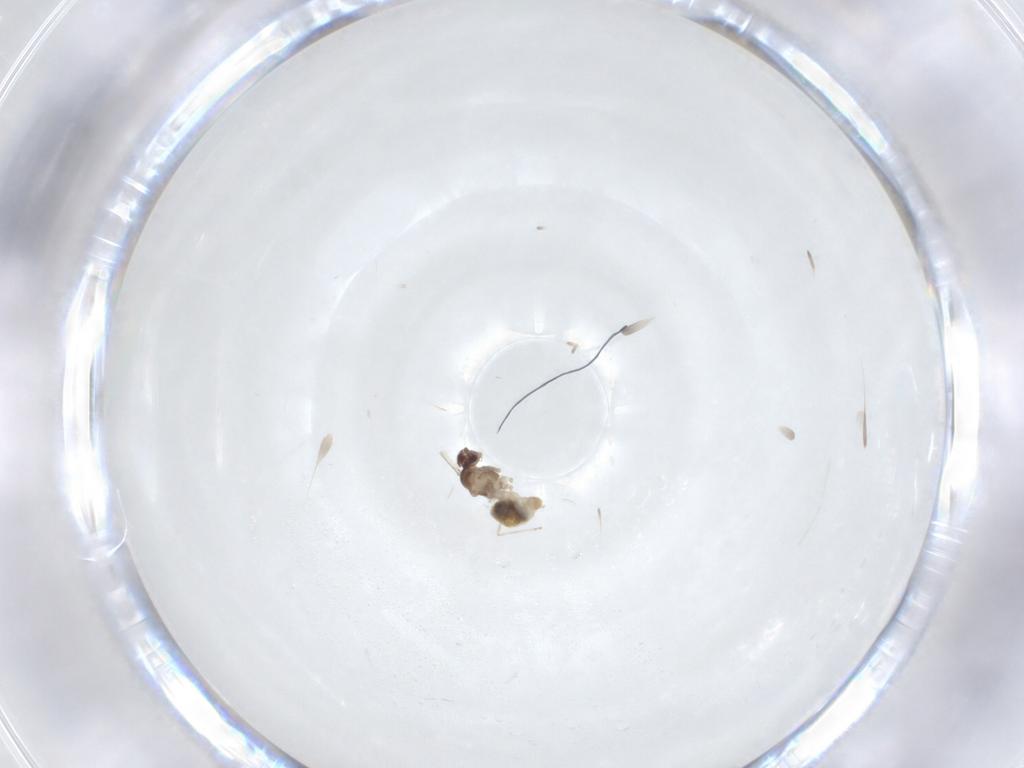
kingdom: Animalia
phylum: Arthropoda
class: Insecta
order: Diptera
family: Cecidomyiidae
